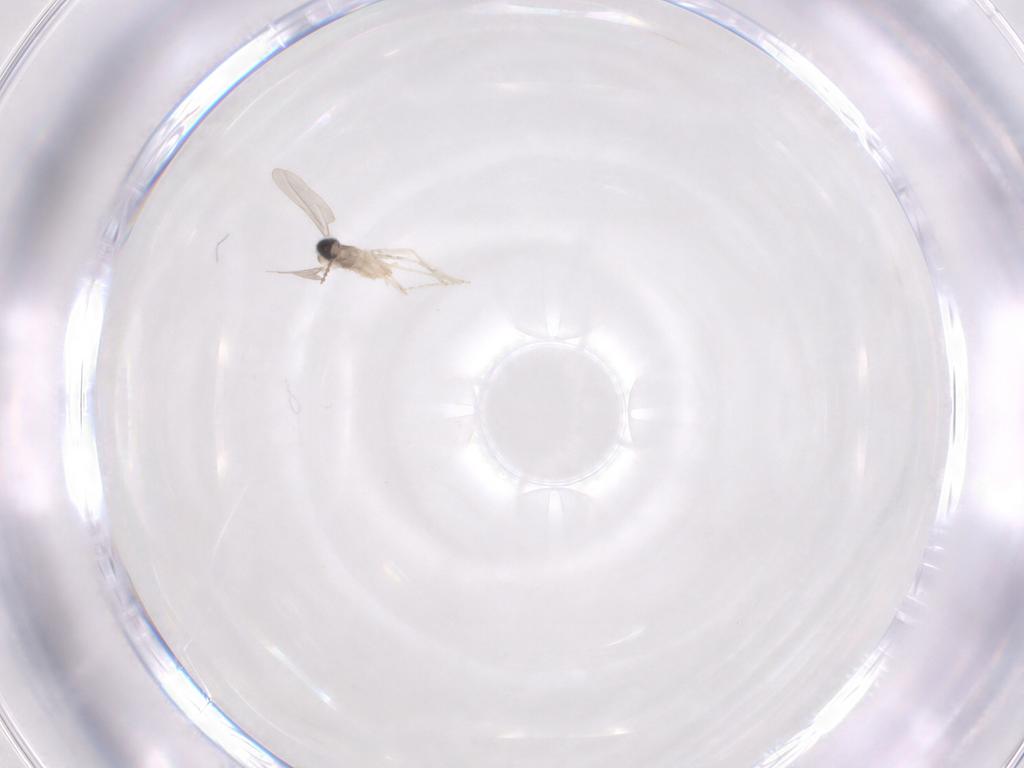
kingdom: Animalia
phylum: Arthropoda
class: Insecta
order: Diptera
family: Cecidomyiidae
